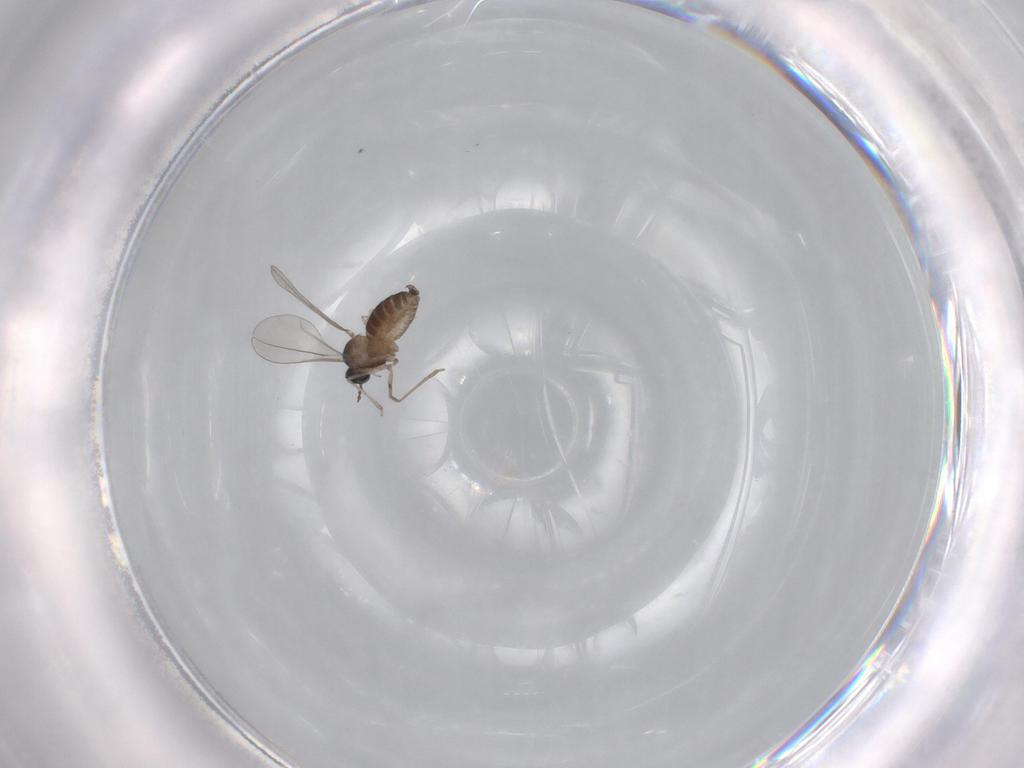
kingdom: Animalia
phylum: Arthropoda
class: Insecta
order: Diptera
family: Cecidomyiidae
